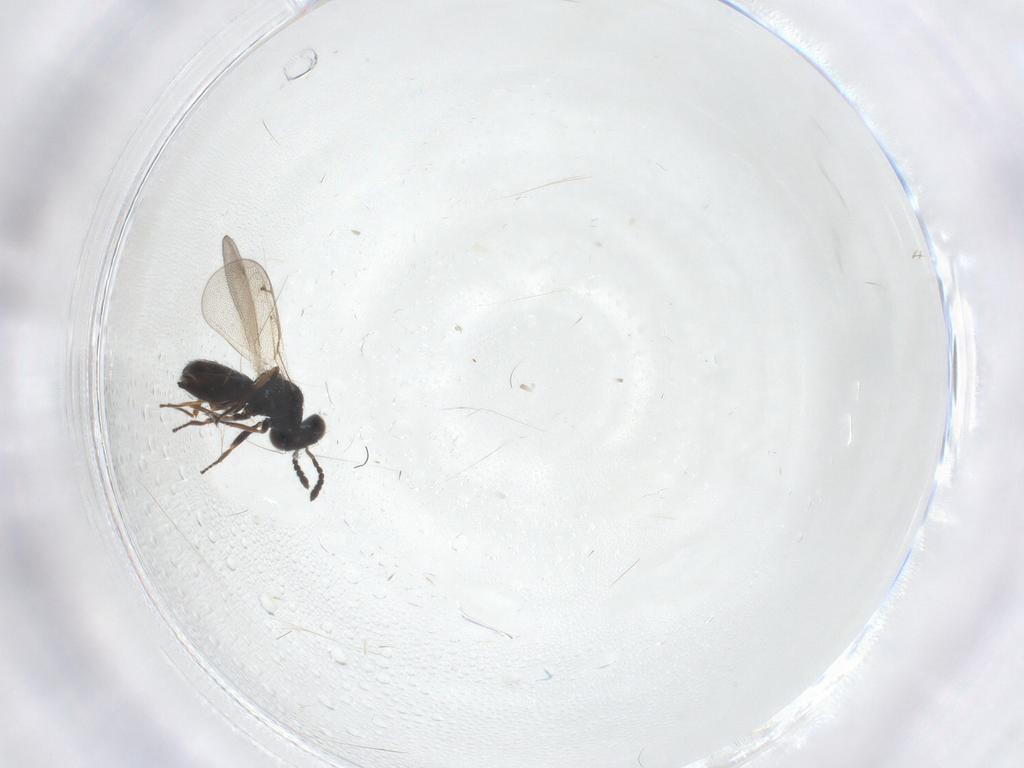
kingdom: Animalia
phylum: Arthropoda
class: Insecta
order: Hymenoptera
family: Eulophidae
